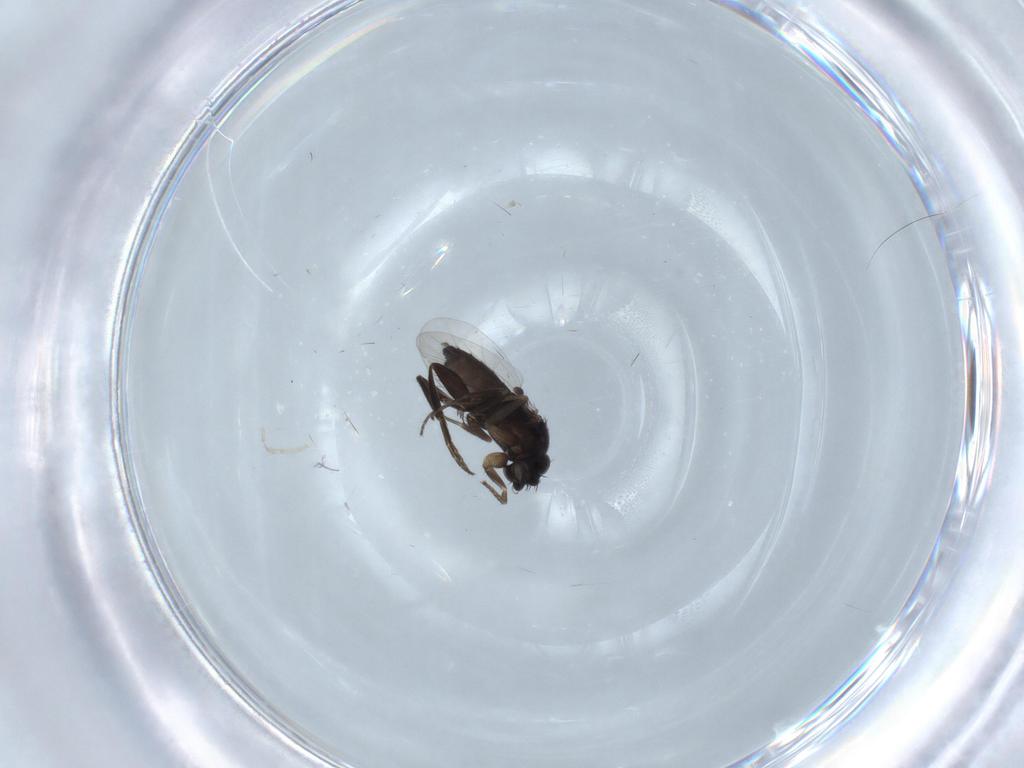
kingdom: Animalia
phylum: Arthropoda
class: Insecta
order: Diptera
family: Phoridae
